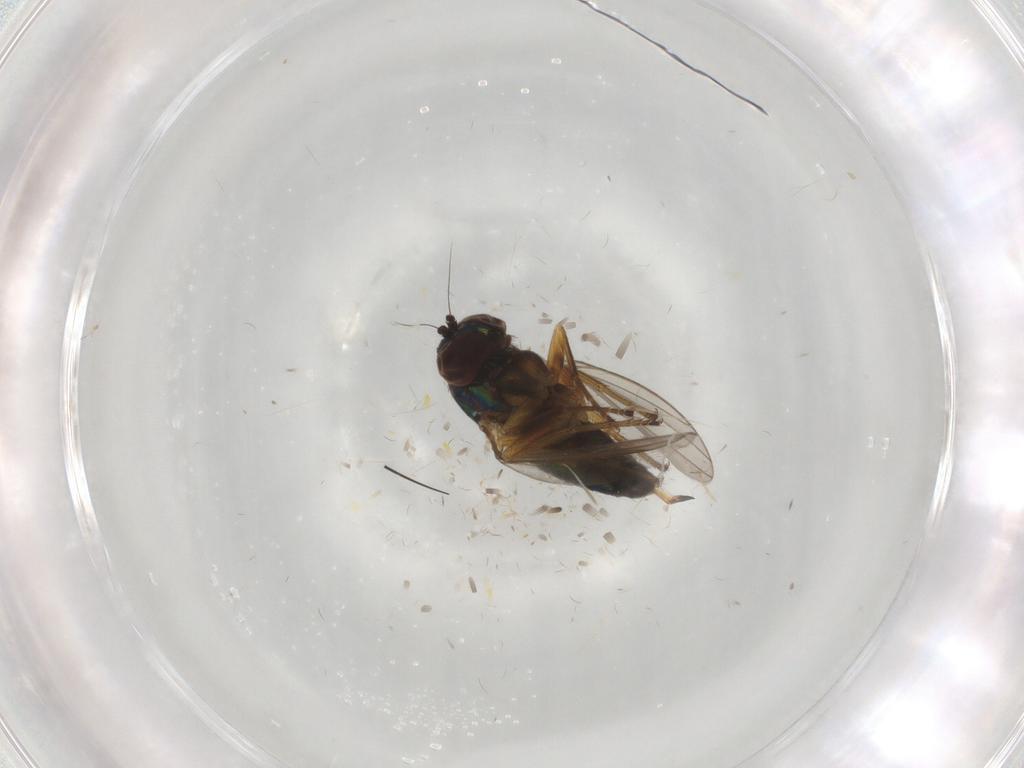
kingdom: Animalia
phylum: Arthropoda
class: Insecta
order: Diptera
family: Dolichopodidae
